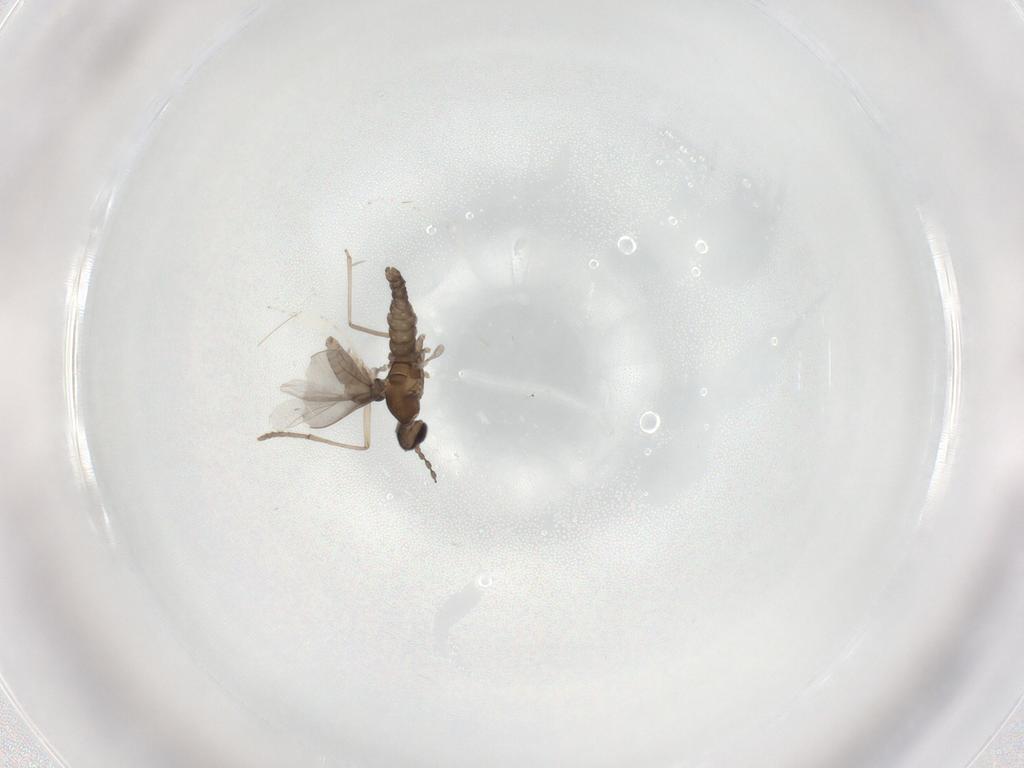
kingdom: Animalia
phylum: Arthropoda
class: Insecta
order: Diptera
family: Psychodidae
